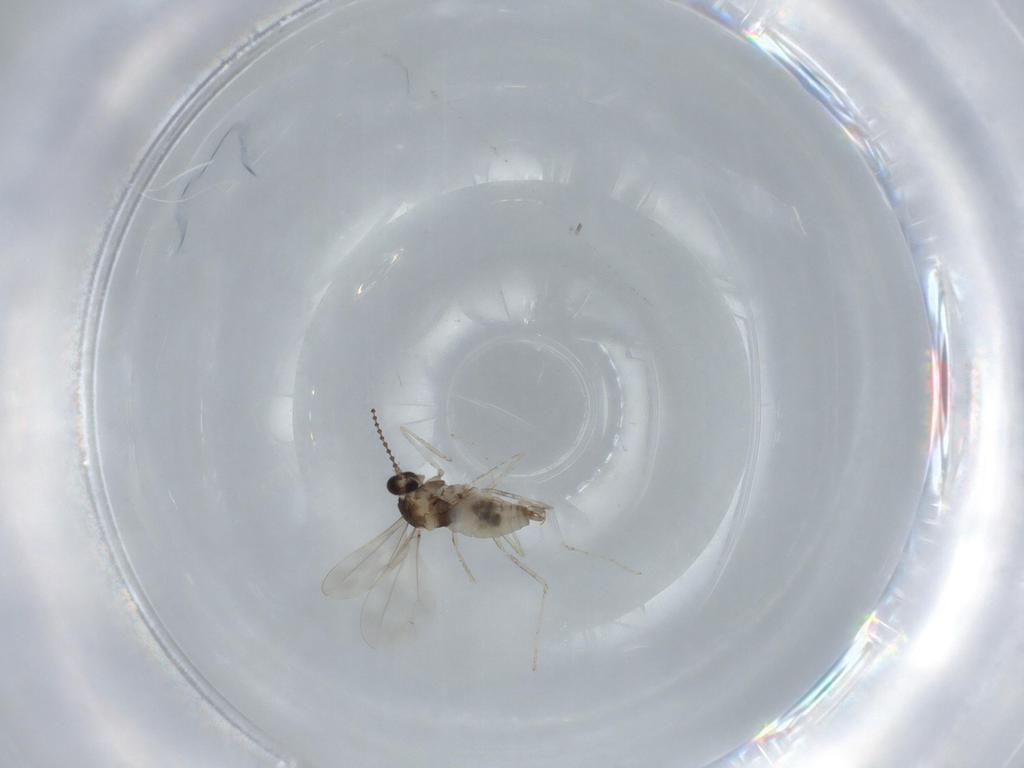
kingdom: Animalia
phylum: Arthropoda
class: Insecta
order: Diptera
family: Cecidomyiidae
